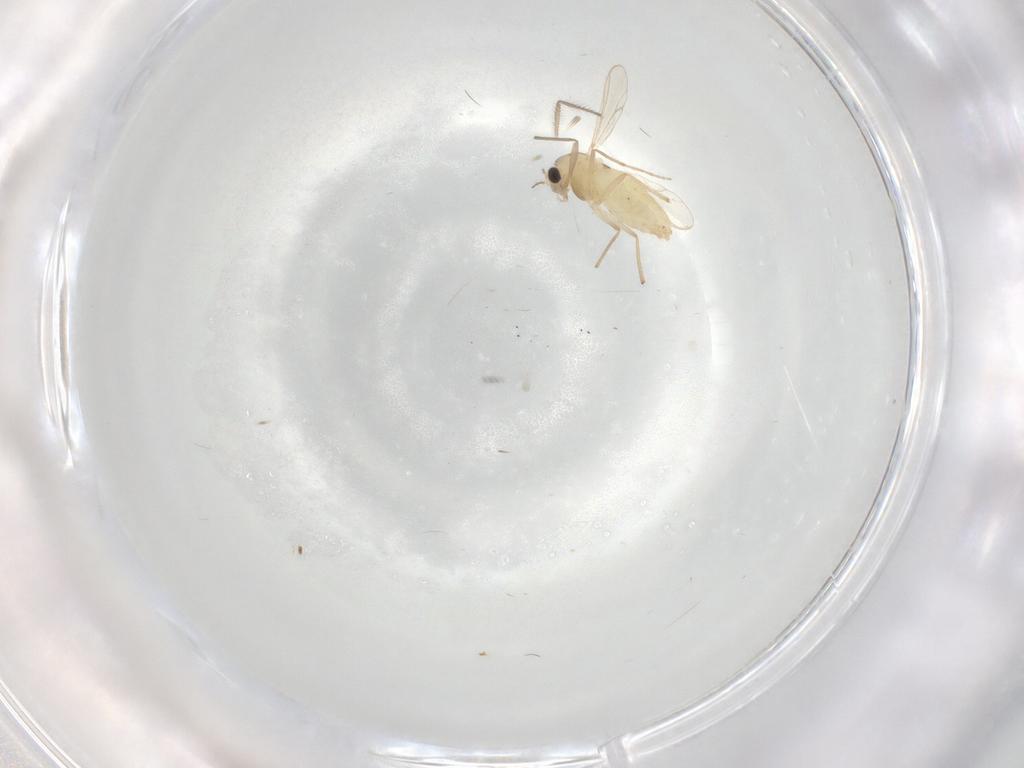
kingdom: Animalia
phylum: Arthropoda
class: Insecta
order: Diptera
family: Chironomidae
